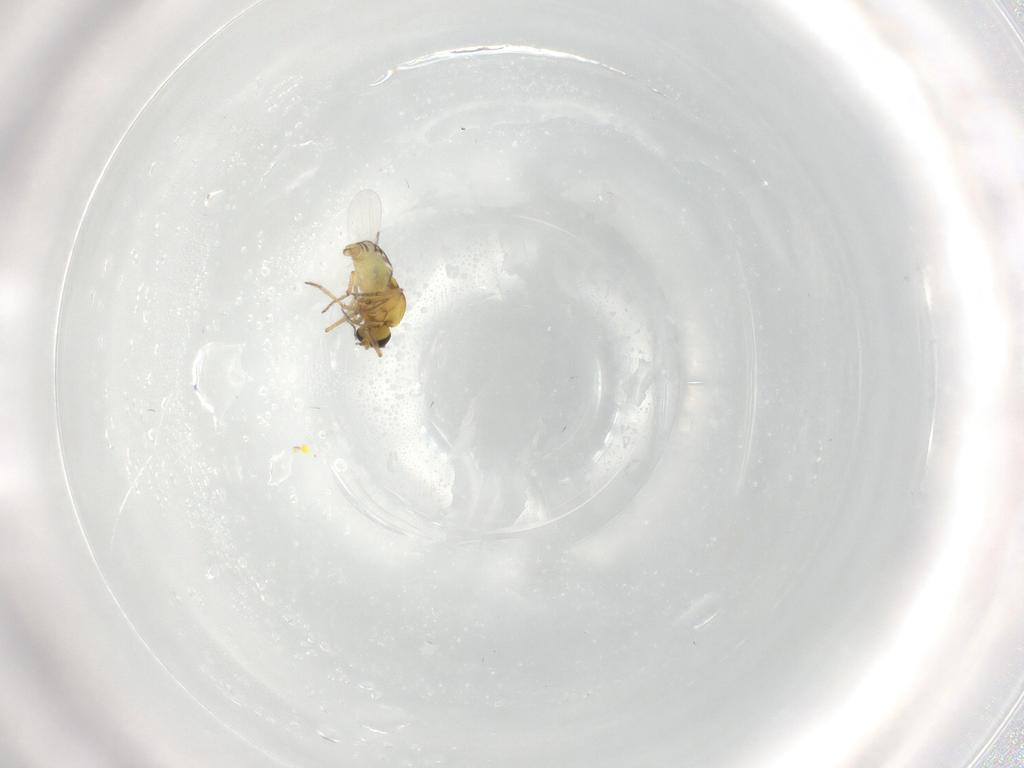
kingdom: Animalia
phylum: Arthropoda
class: Insecta
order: Diptera
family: Ceratopogonidae
